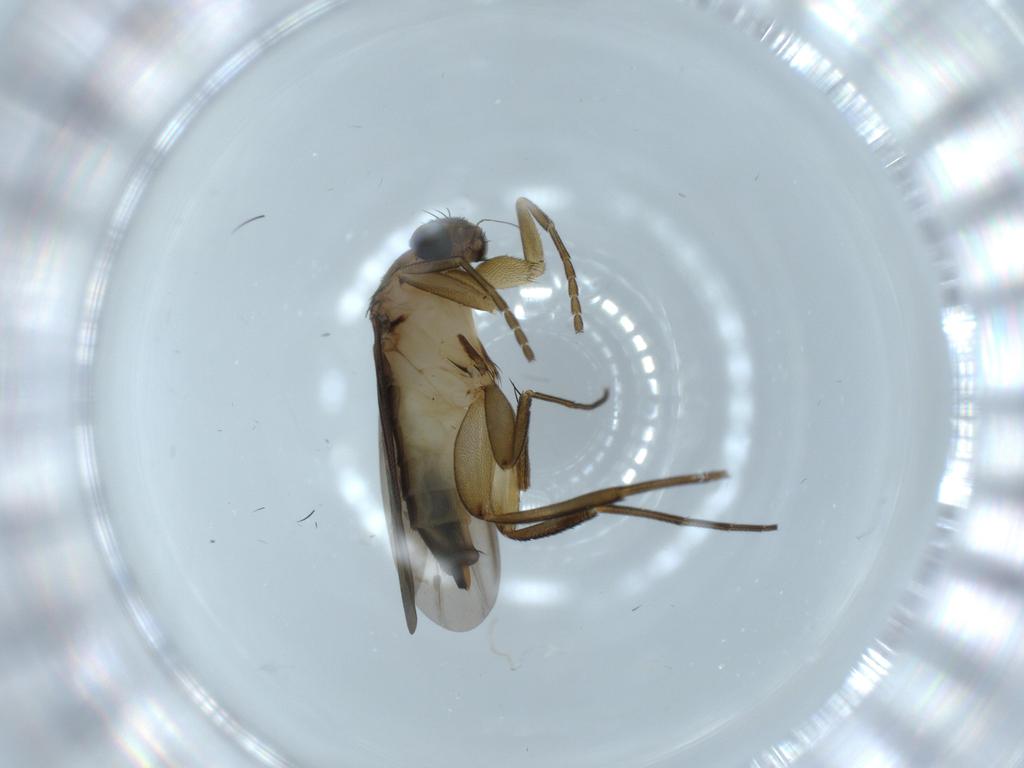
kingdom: Animalia
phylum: Arthropoda
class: Insecta
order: Diptera
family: Phoridae
